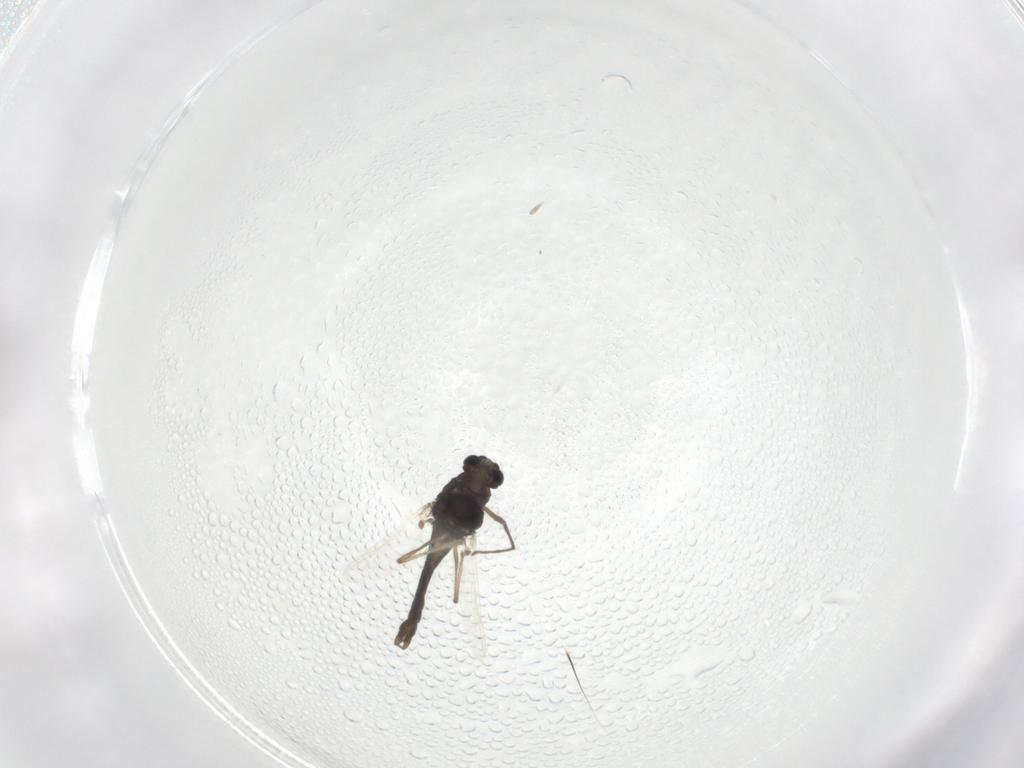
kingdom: Animalia
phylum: Arthropoda
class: Insecta
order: Diptera
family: Chironomidae
